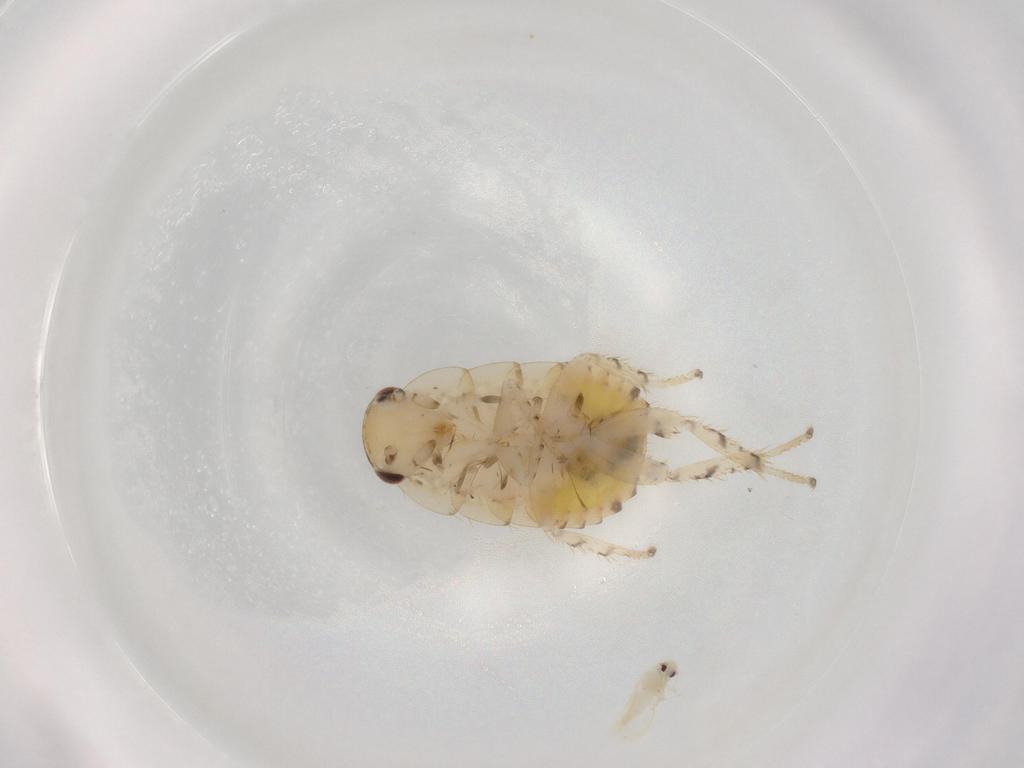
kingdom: Animalia
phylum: Arthropoda
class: Insecta
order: Blattodea
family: Ectobiidae
